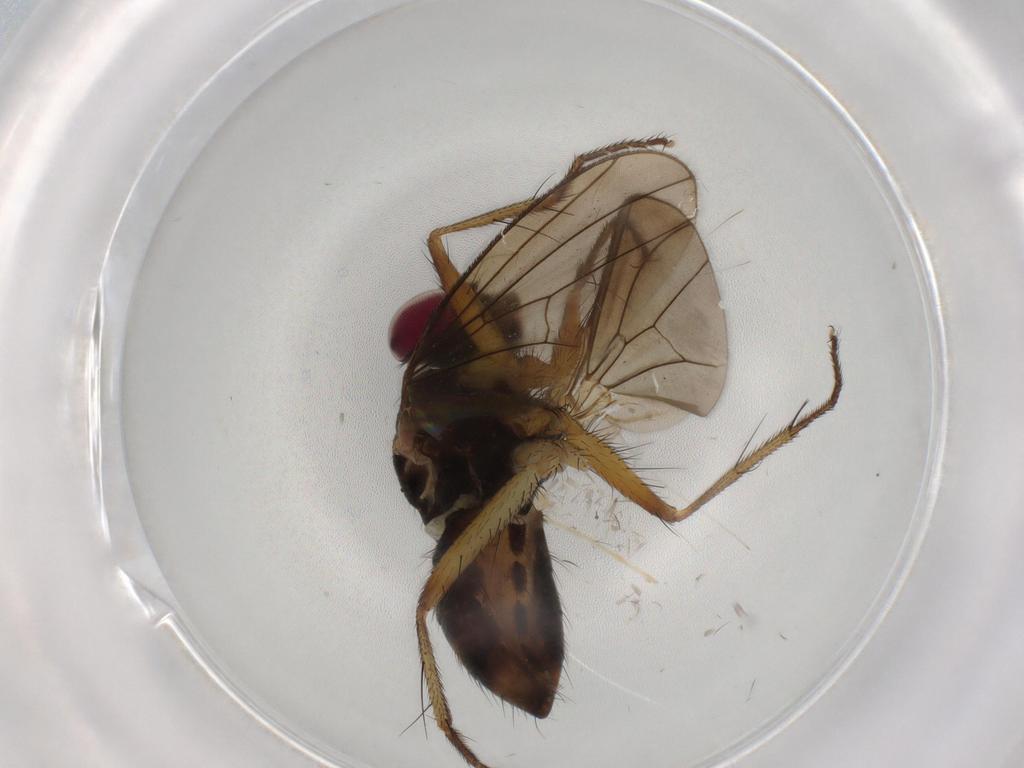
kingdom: Animalia
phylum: Arthropoda
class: Insecta
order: Diptera
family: Anthomyiidae
